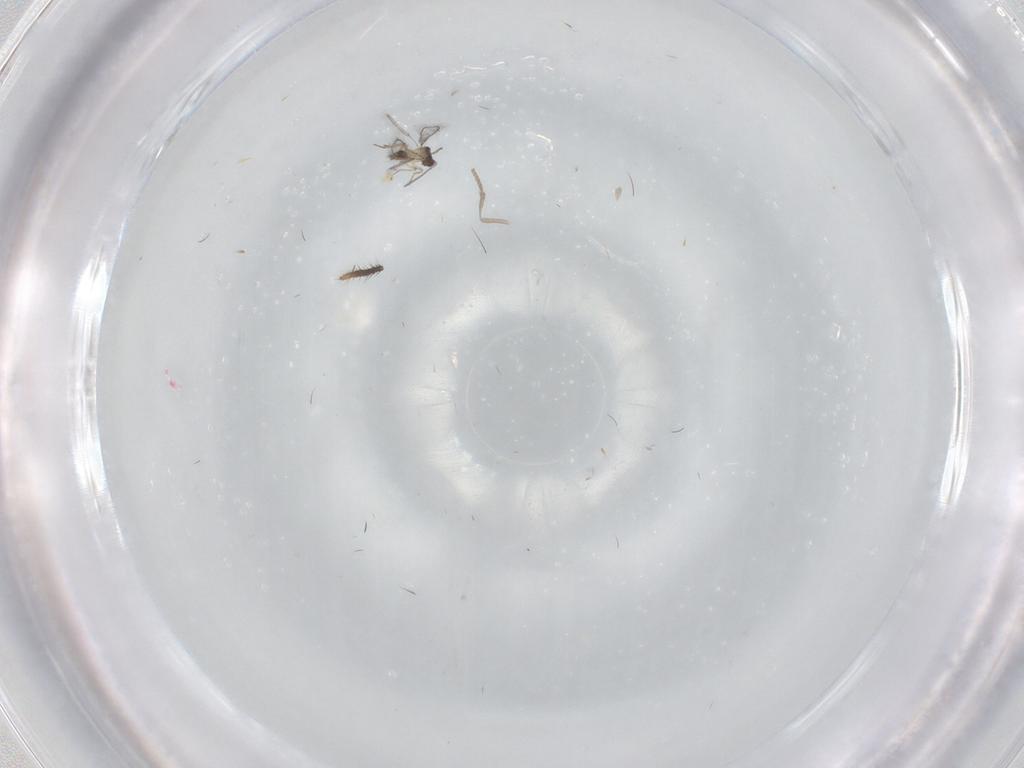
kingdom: Animalia
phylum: Arthropoda
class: Insecta
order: Diptera
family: Psychodidae
